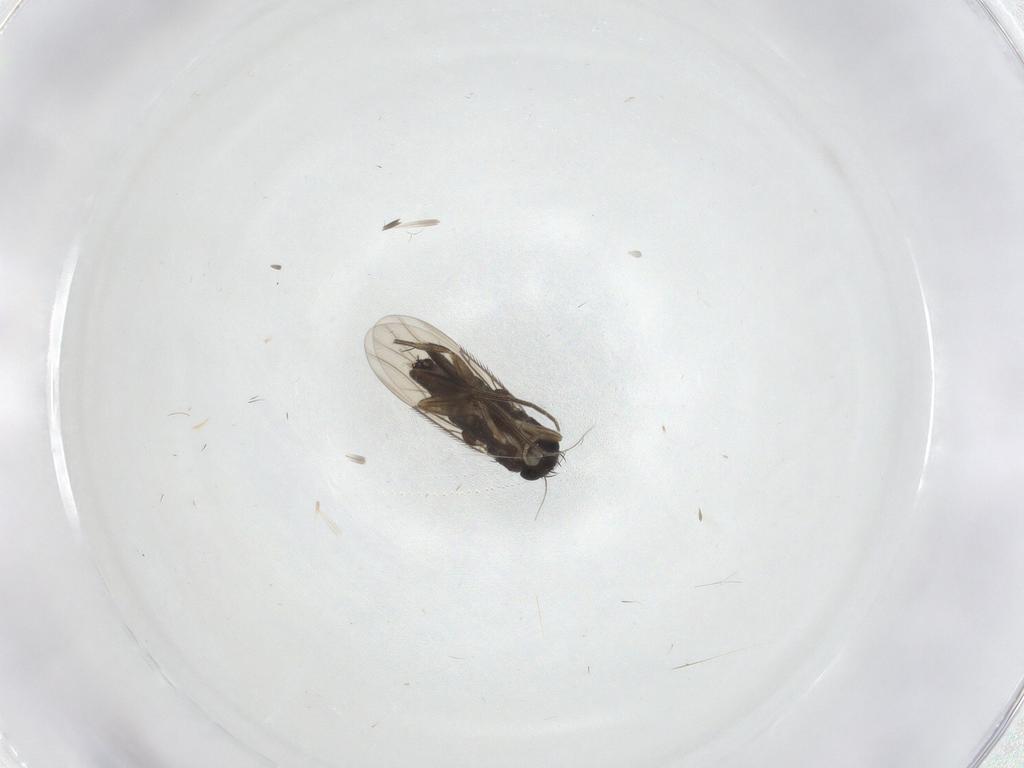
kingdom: Animalia
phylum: Arthropoda
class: Insecta
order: Diptera
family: Phoridae
